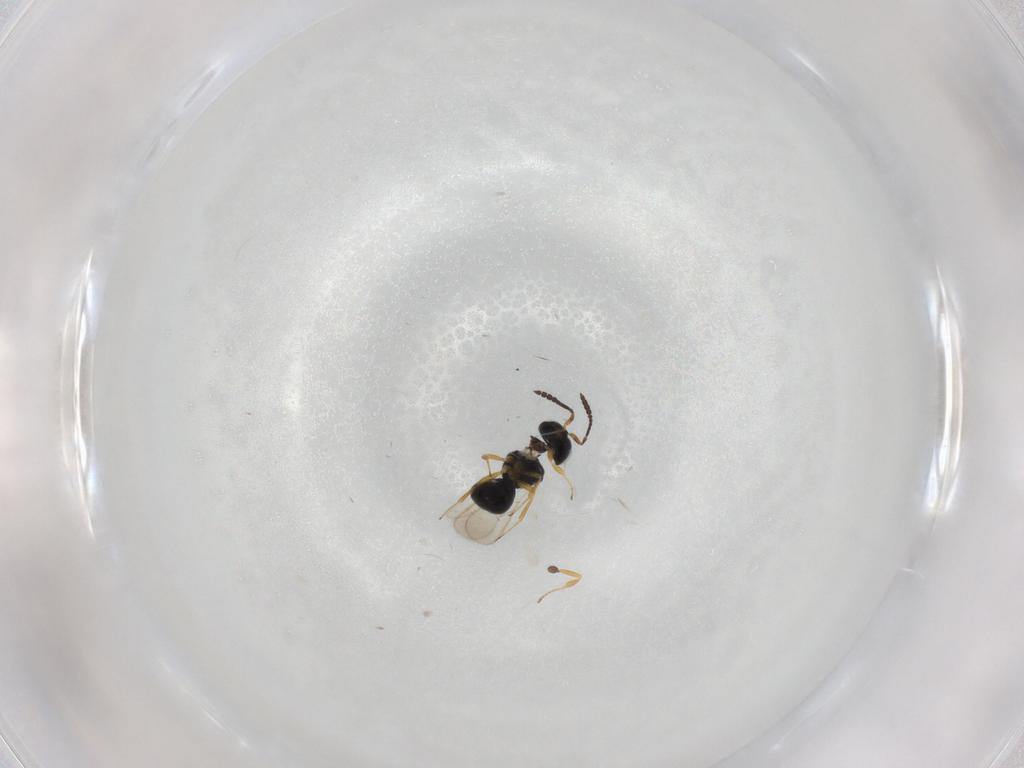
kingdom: Animalia
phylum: Arthropoda
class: Insecta
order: Hymenoptera
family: Scelionidae
